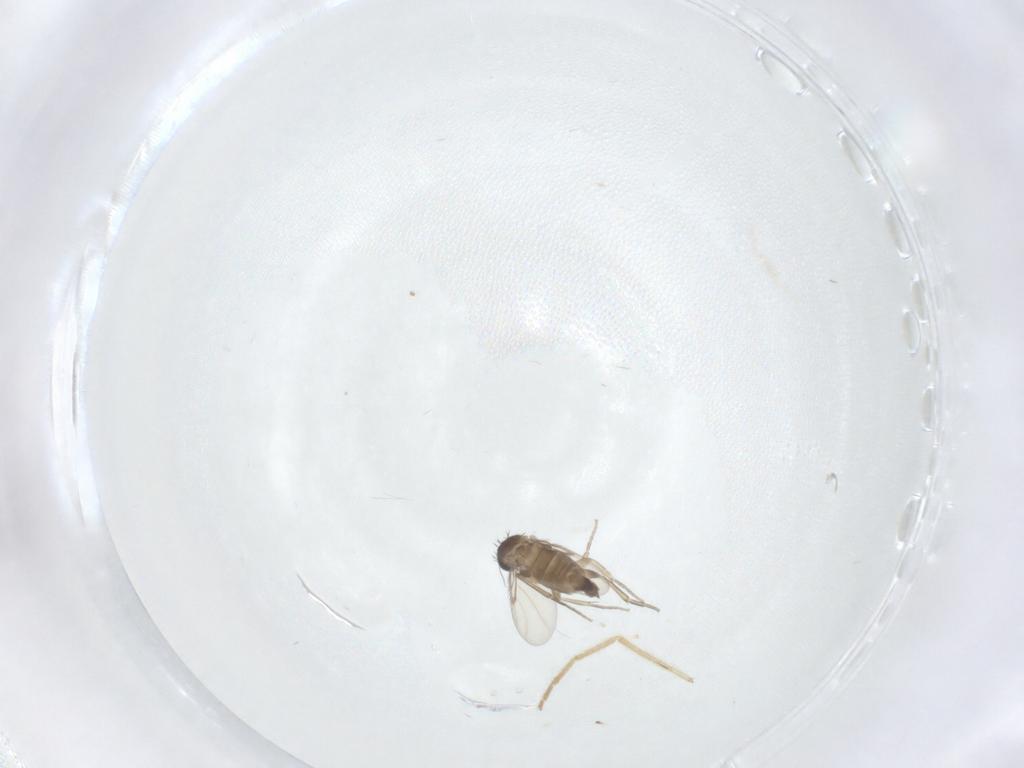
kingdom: Animalia
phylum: Arthropoda
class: Insecta
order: Diptera
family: Phoridae
